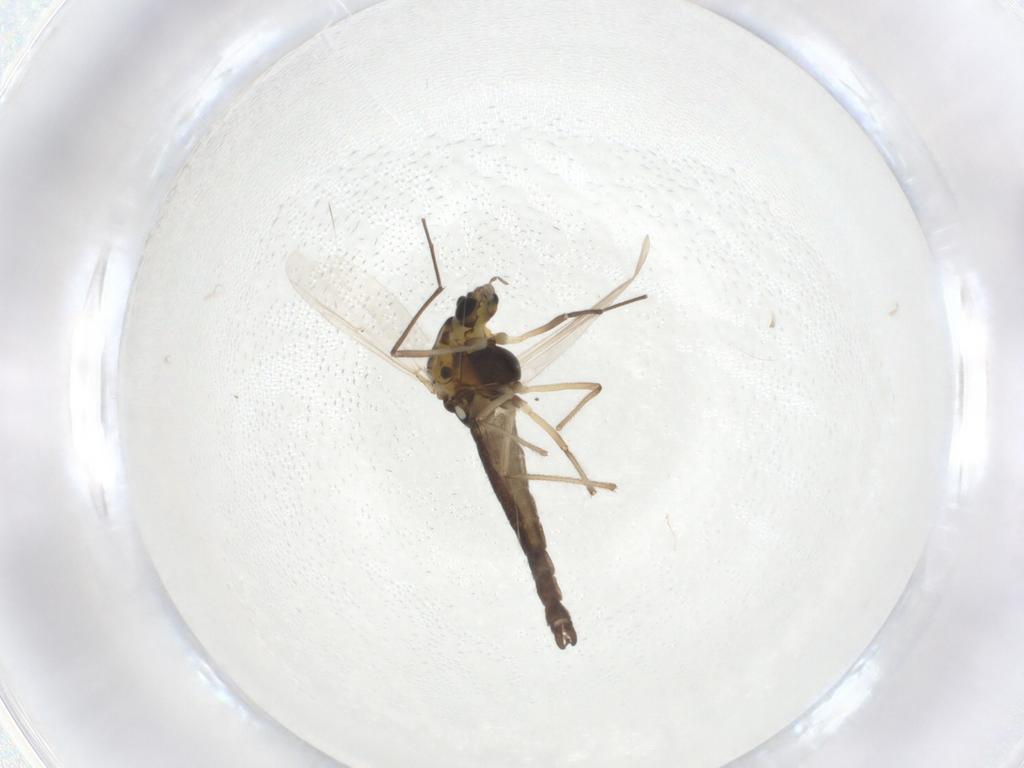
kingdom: Animalia
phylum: Arthropoda
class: Insecta
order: Diptera
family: Chironomidae
